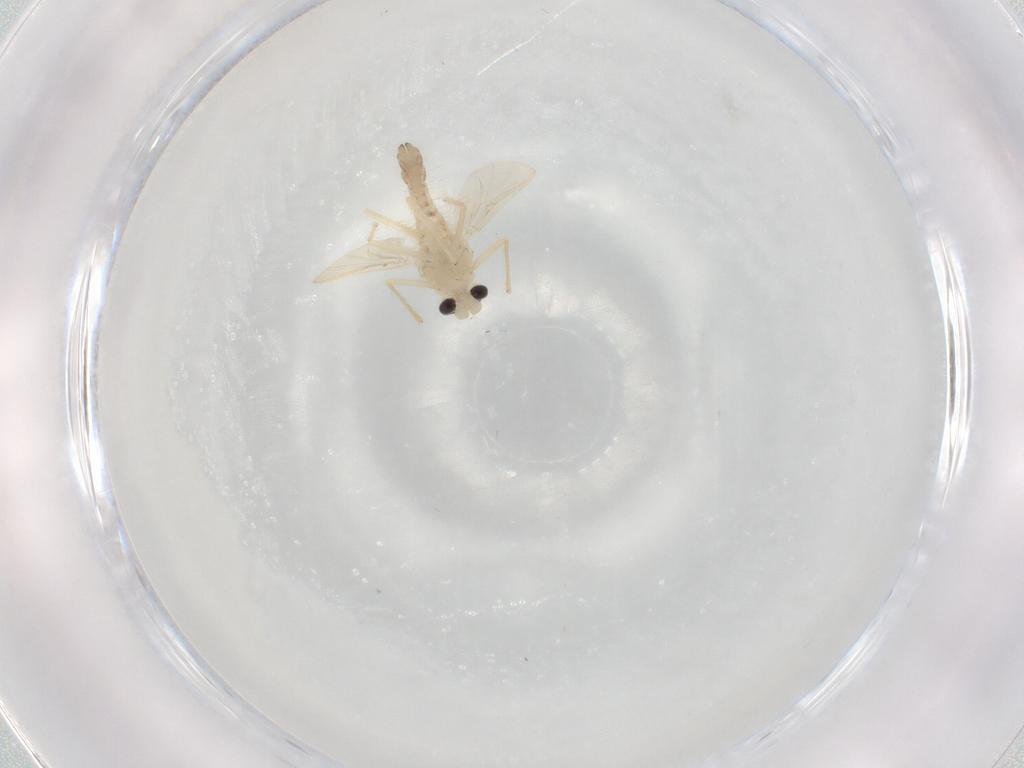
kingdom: Animalia
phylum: Arthropoda
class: Insecta
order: Diptera
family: Chironomidae
